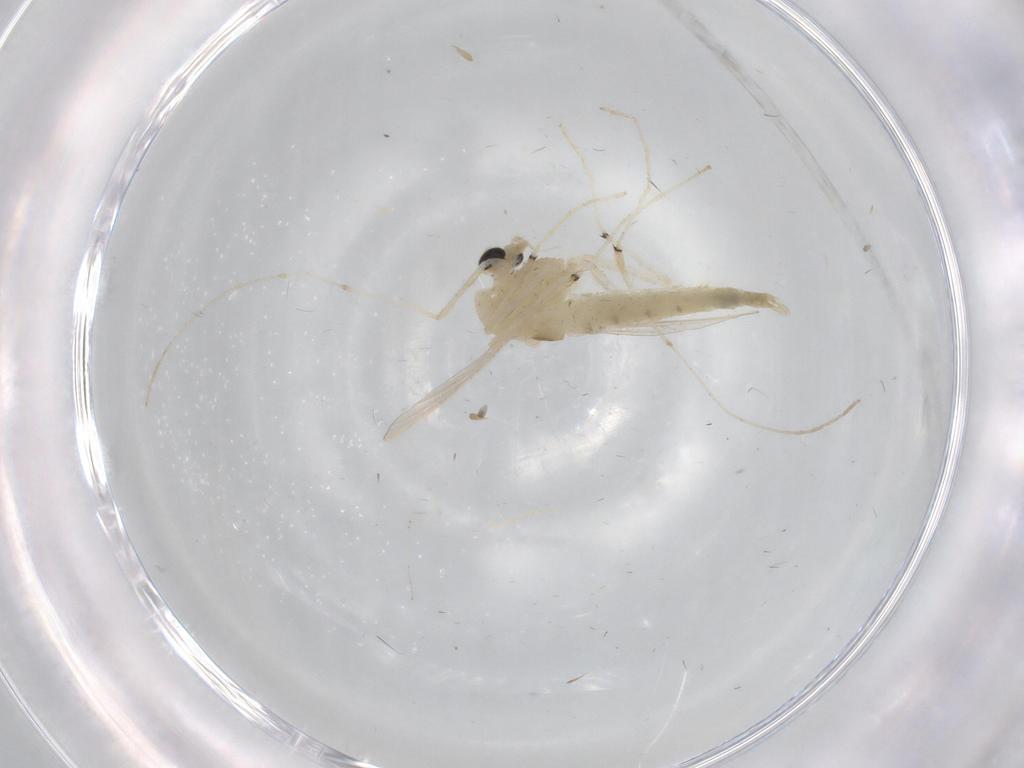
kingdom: Animalia
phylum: Arthropoda
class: Insecta
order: Diptera
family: Chironomidae
